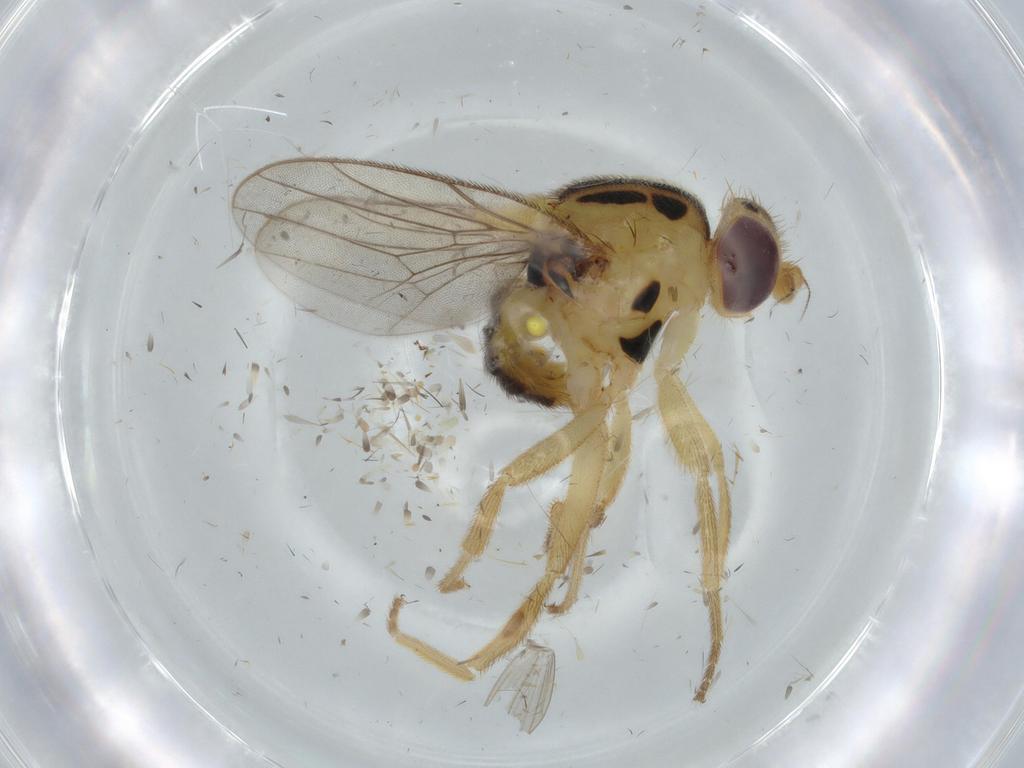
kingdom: Animalia
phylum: Arthropoda
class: Insecta
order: Diptera
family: Chloropidae
